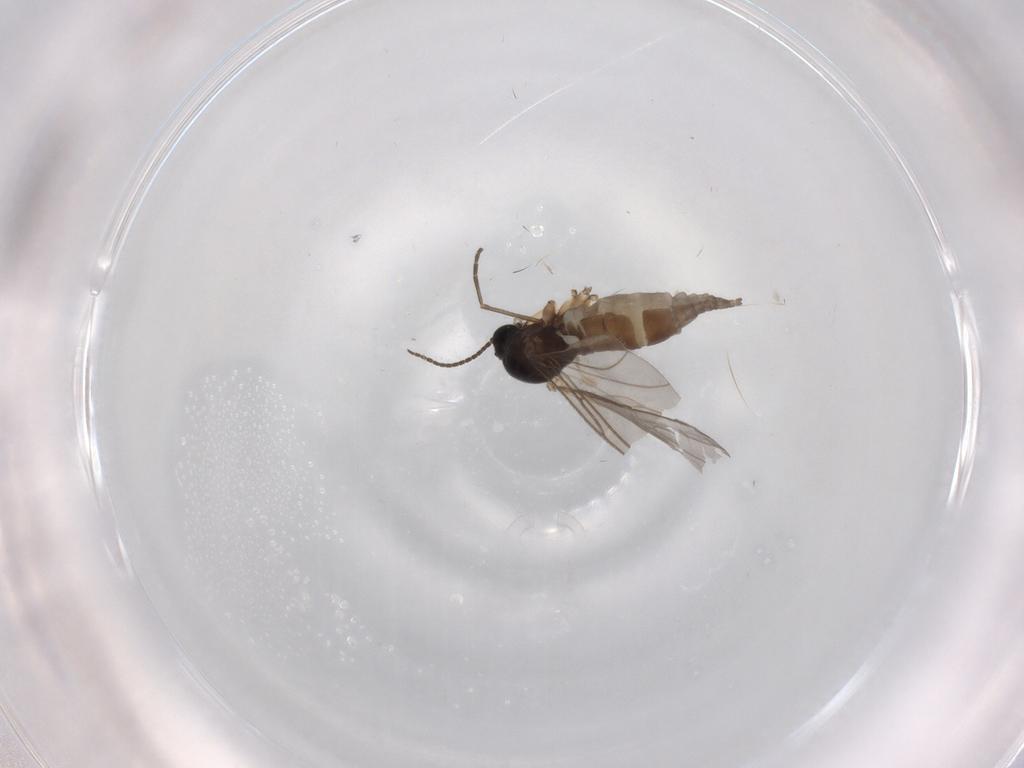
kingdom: Animalia
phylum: Arthropoda
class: Insecta
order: Diptera
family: Sciaridae
